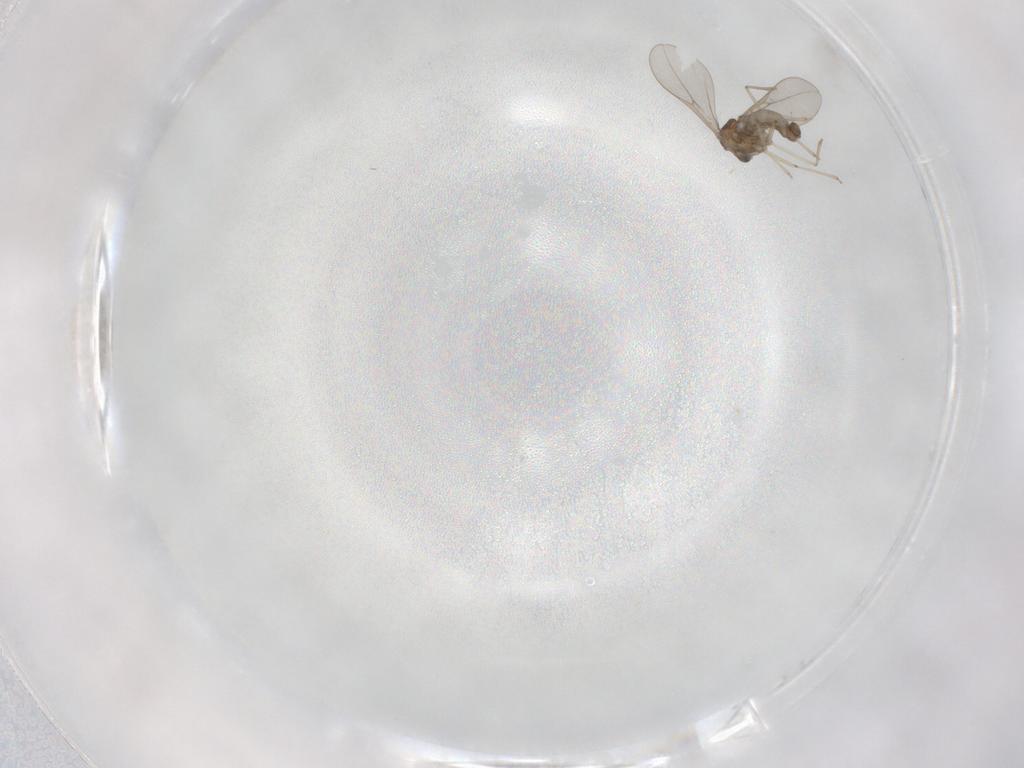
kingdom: Animalia
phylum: Arthropoda
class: Insecta
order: Diptera
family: Cecidomyiidae
